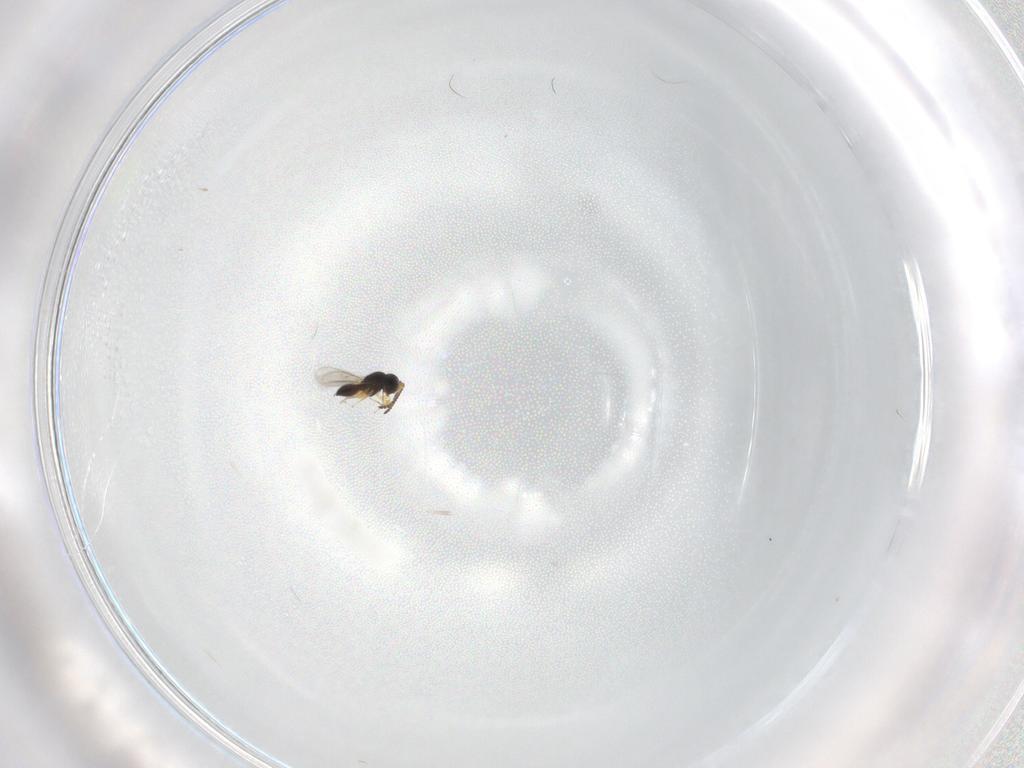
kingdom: Animalia
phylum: Arthropoda
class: Insecta
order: Hymenoptera
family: Scelionidae
